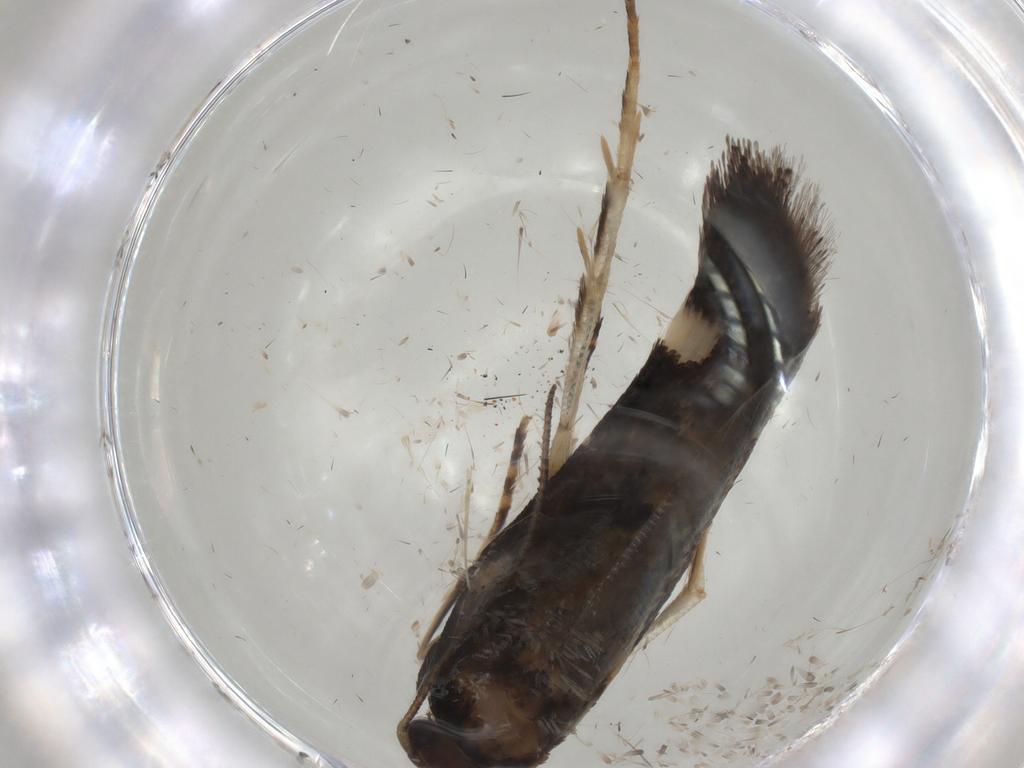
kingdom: Animalia
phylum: Arthropoda
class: Insecta
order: Lepidoptera
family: Gelechiidae
